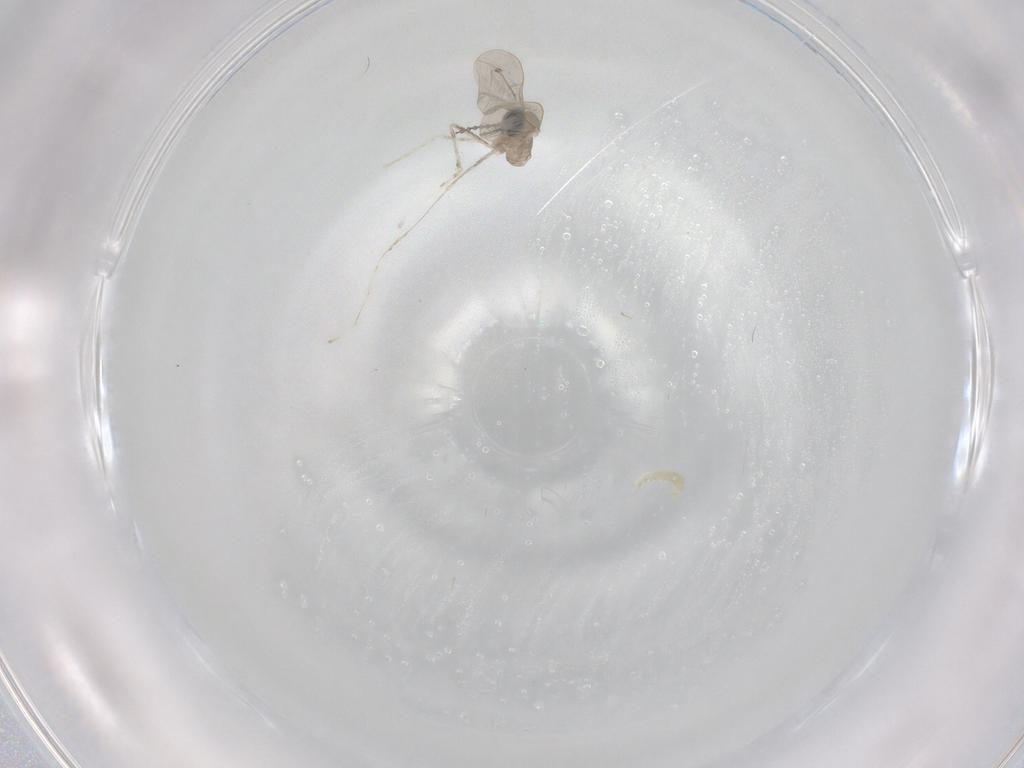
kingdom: Animalia
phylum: Arthropoda
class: Insecta
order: Diptera
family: Cecidomyiidae
